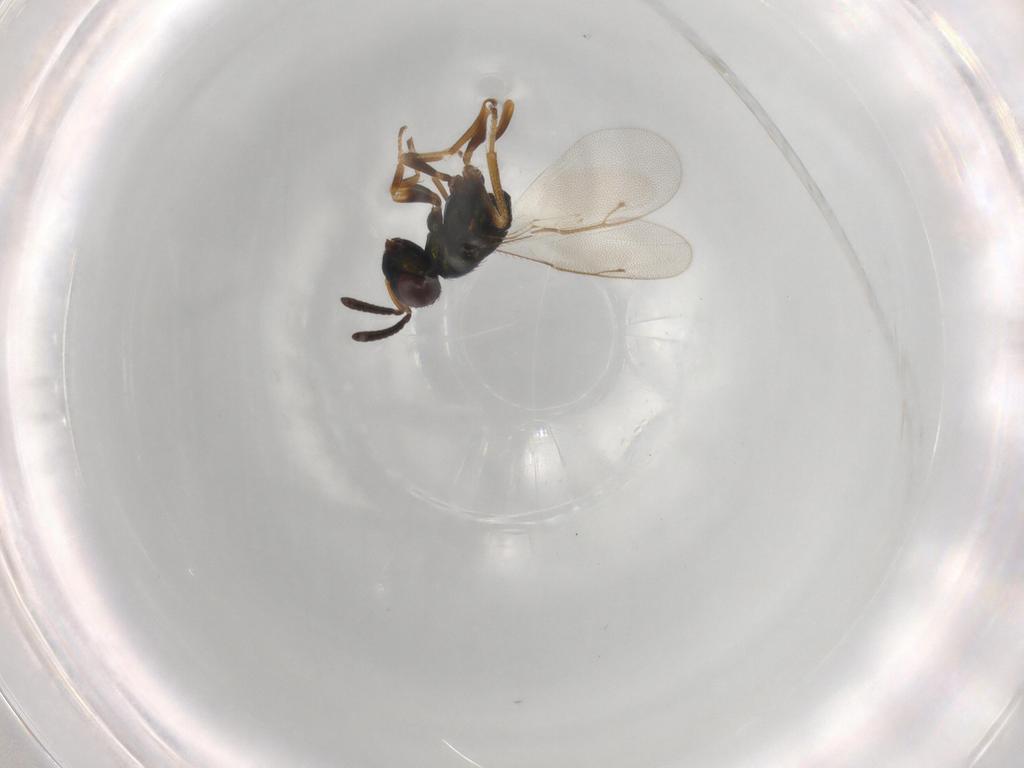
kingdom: Animalia
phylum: Arthropoda
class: Insecta
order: Hymenoptera
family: Pteromalidae
